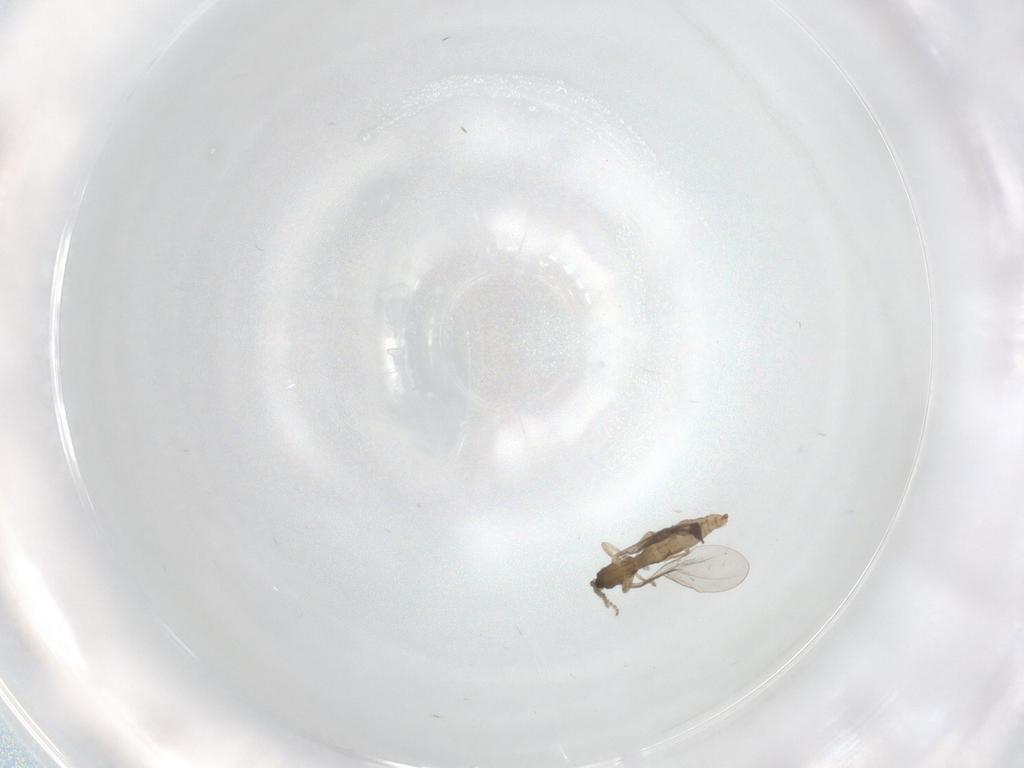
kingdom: Animalia
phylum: Arthropoda
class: Insecta
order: Diptera
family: Cecidomyiidae
